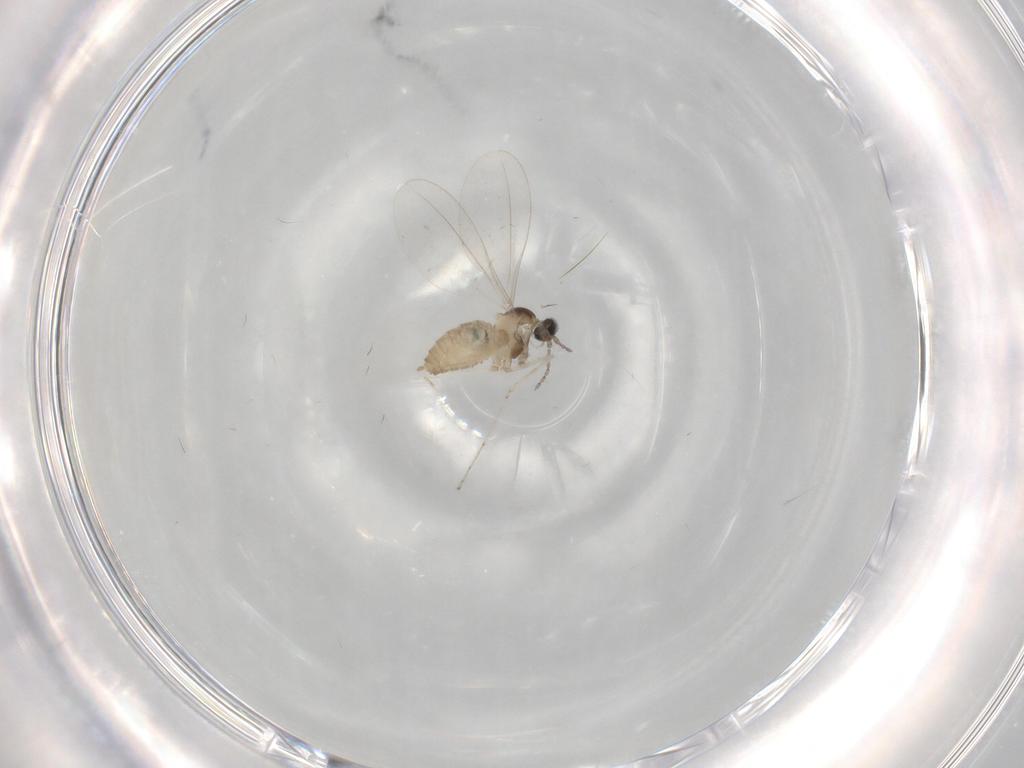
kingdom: Animalia
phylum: Arthropoda
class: Insecta
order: Diptera
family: Cecidomyiidae
